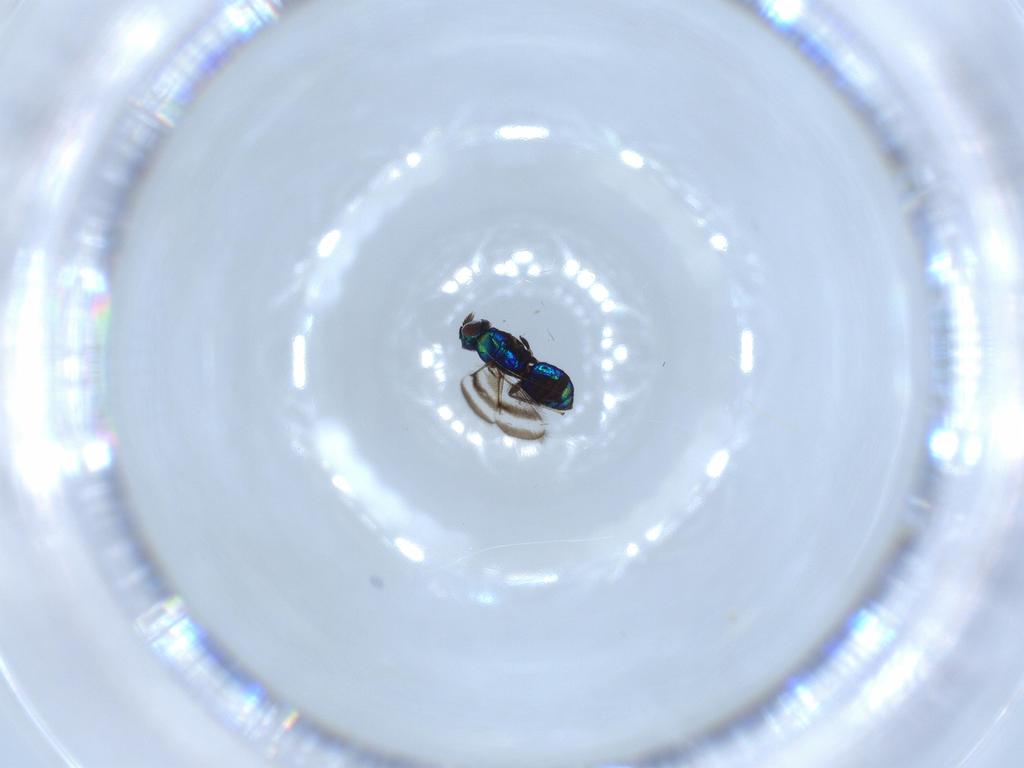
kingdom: Animalia
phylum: Arthropoda
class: Insecta
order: Hymenoptera
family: Eulophidae
